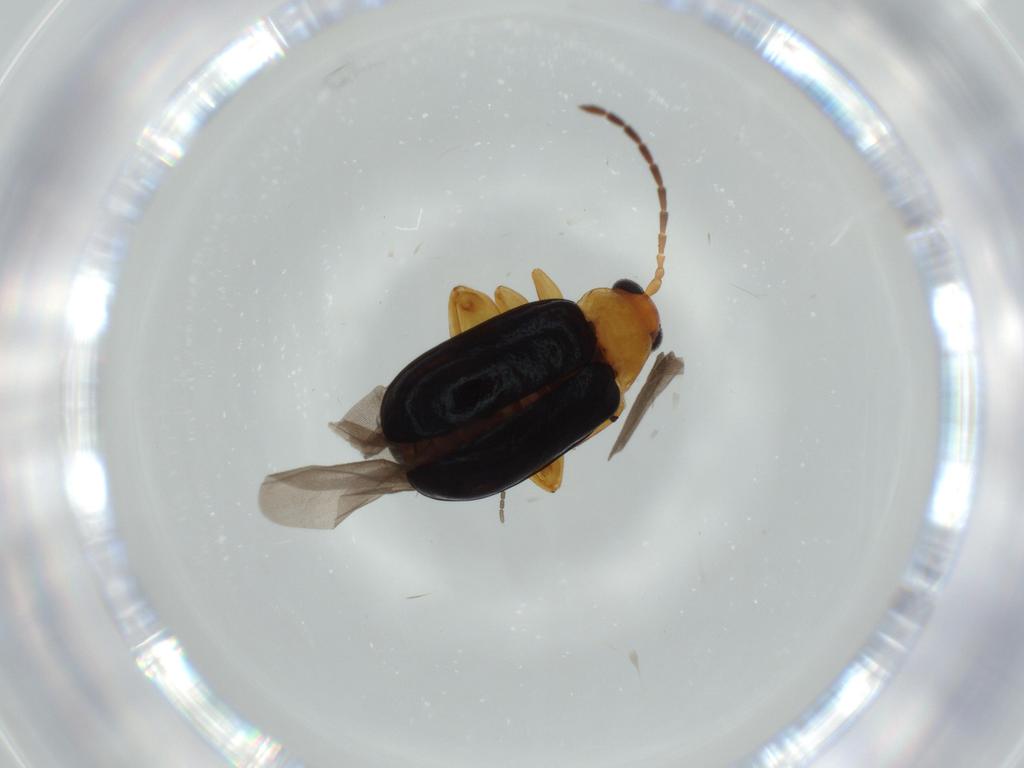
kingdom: Animalia
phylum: Arthropoda
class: Insecta
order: Coleoptera
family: Chrysomelidae
